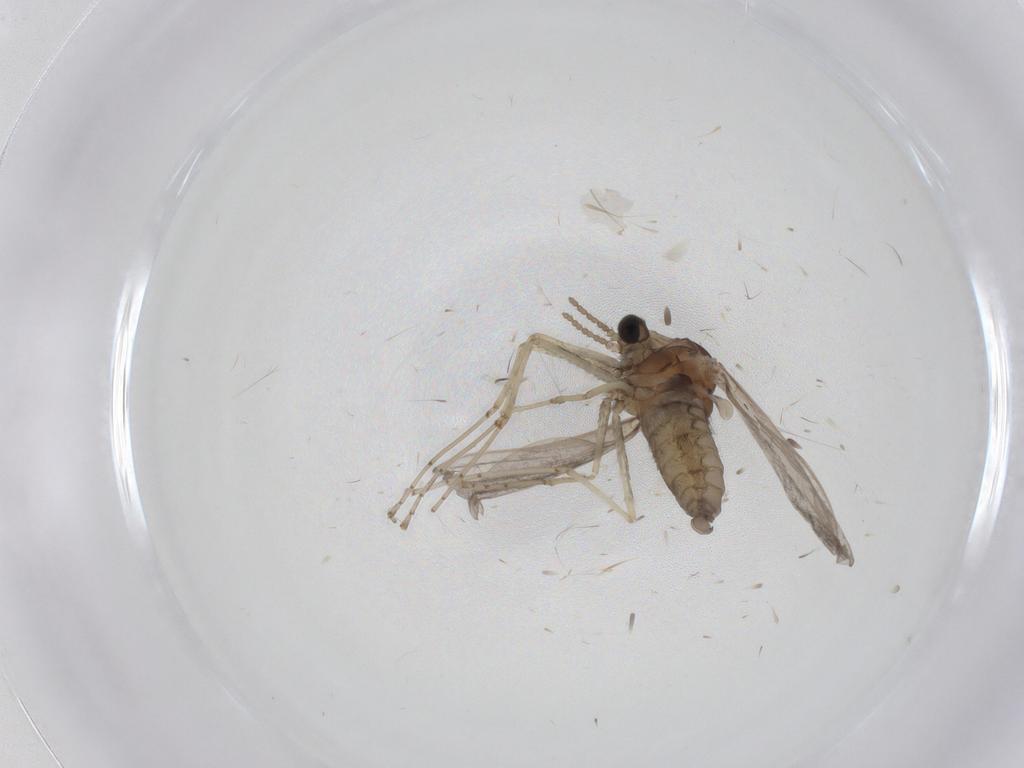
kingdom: Animalia
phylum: Arthropoda
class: Insecta
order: Diptera
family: Cecidomyiidae
